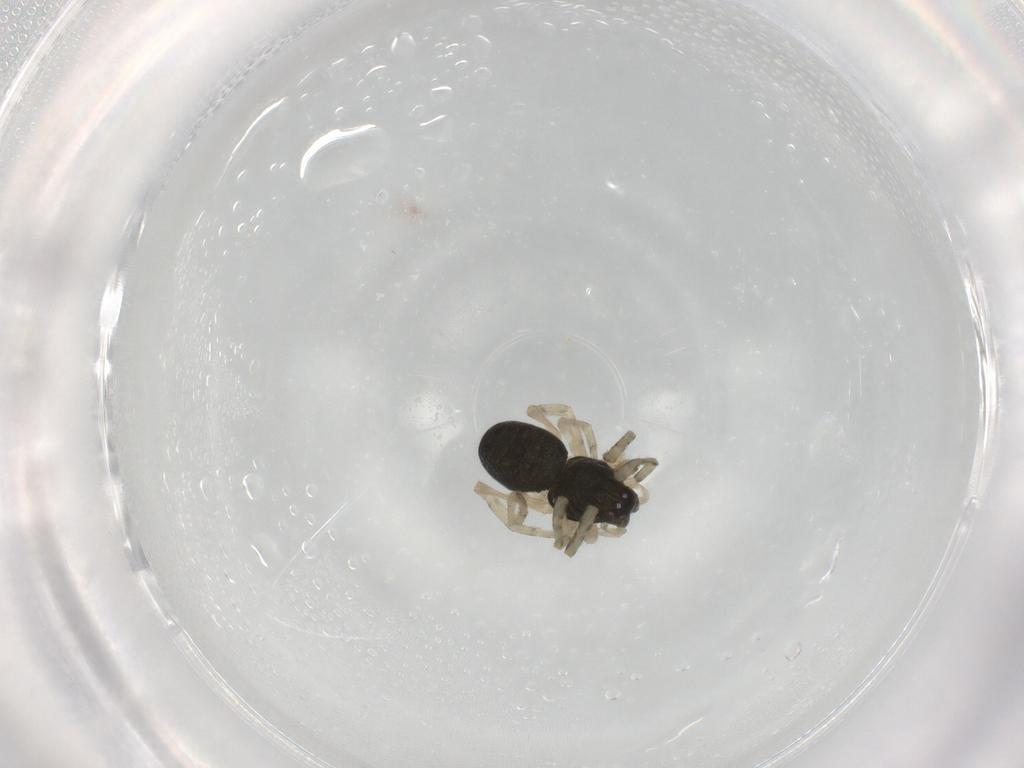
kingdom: Animalia
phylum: Arthropoda
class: Arachnida
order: Araneae
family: Trachelidae
